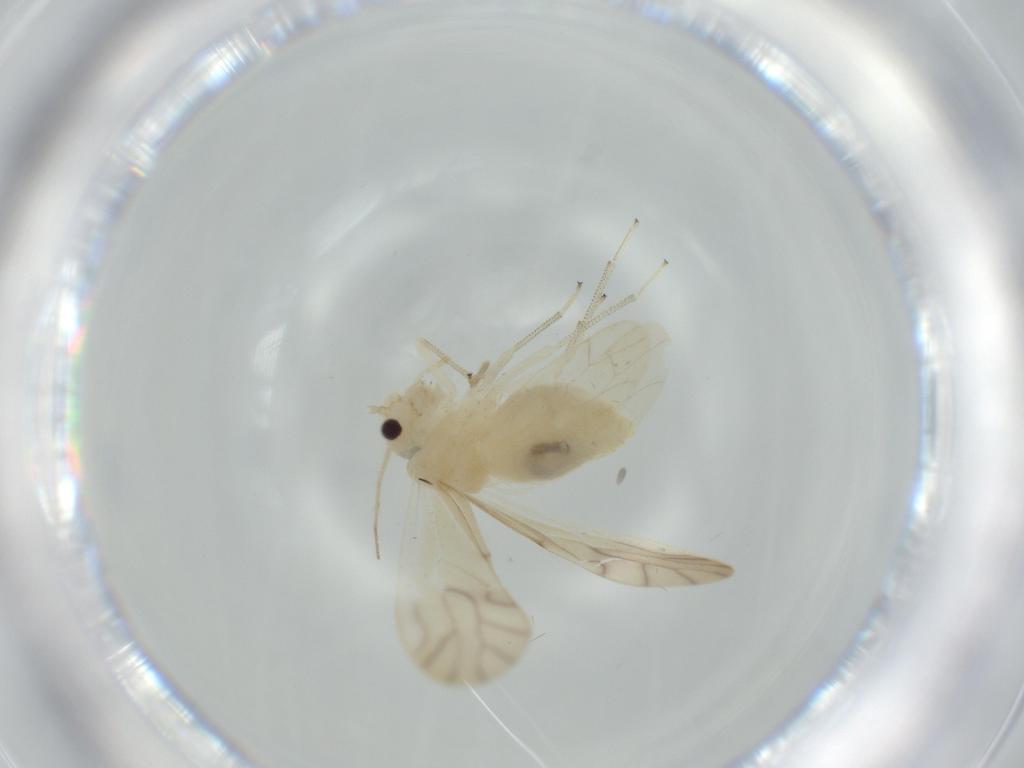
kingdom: Animalia
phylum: Arthropoda
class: Insecta
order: Psocodea
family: Caeciliusidae
